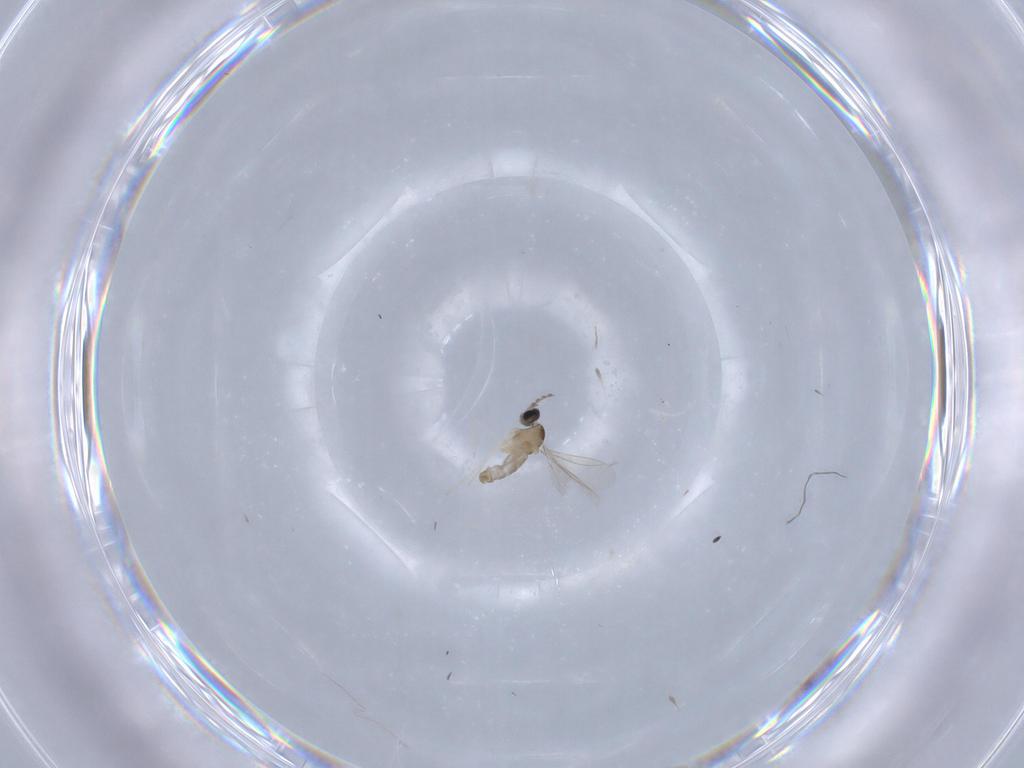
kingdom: Animalia
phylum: Arthropoda
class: Insecta
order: Diptera
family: Cecidomyiidae
